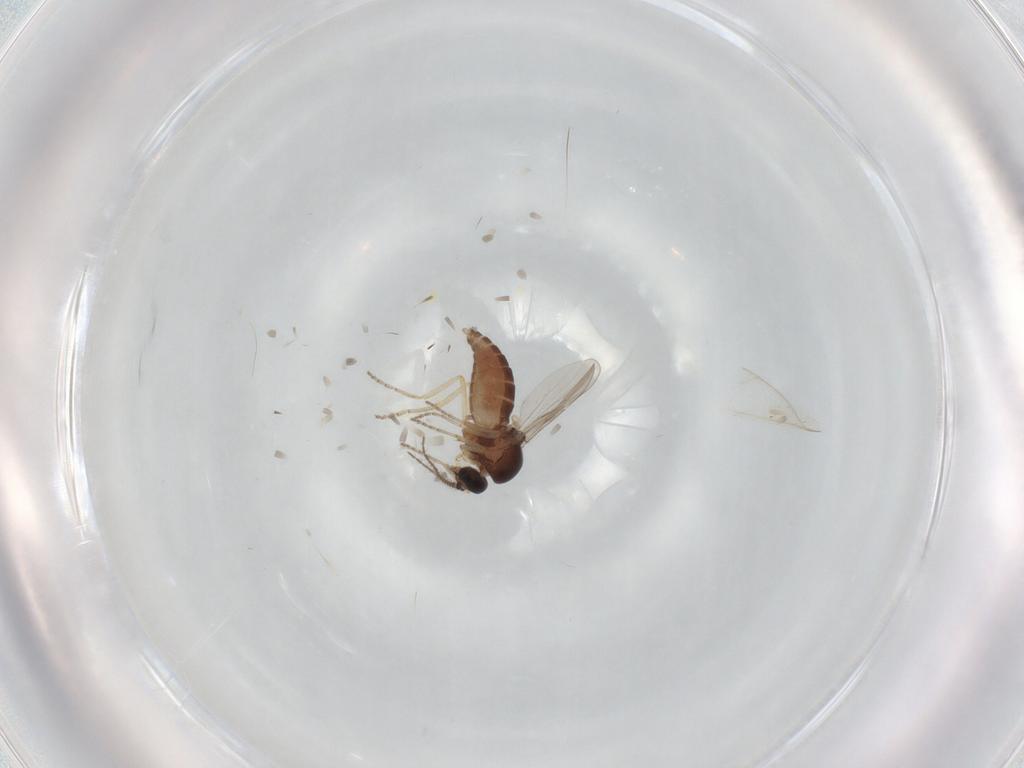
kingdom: Animalia
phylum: Arthropoda
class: Insecta
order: Diptera
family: Ceratopogonidae
